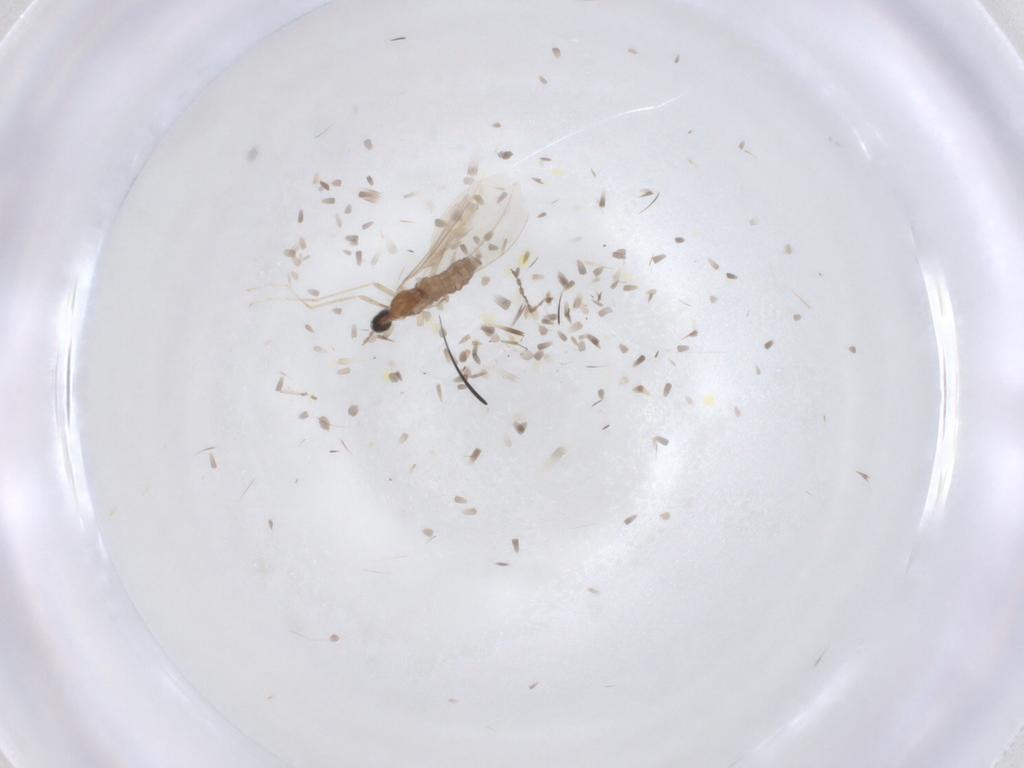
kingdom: Animalia
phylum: Arthropoda
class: Insecta
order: Diptera
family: Cecidomyiidae
